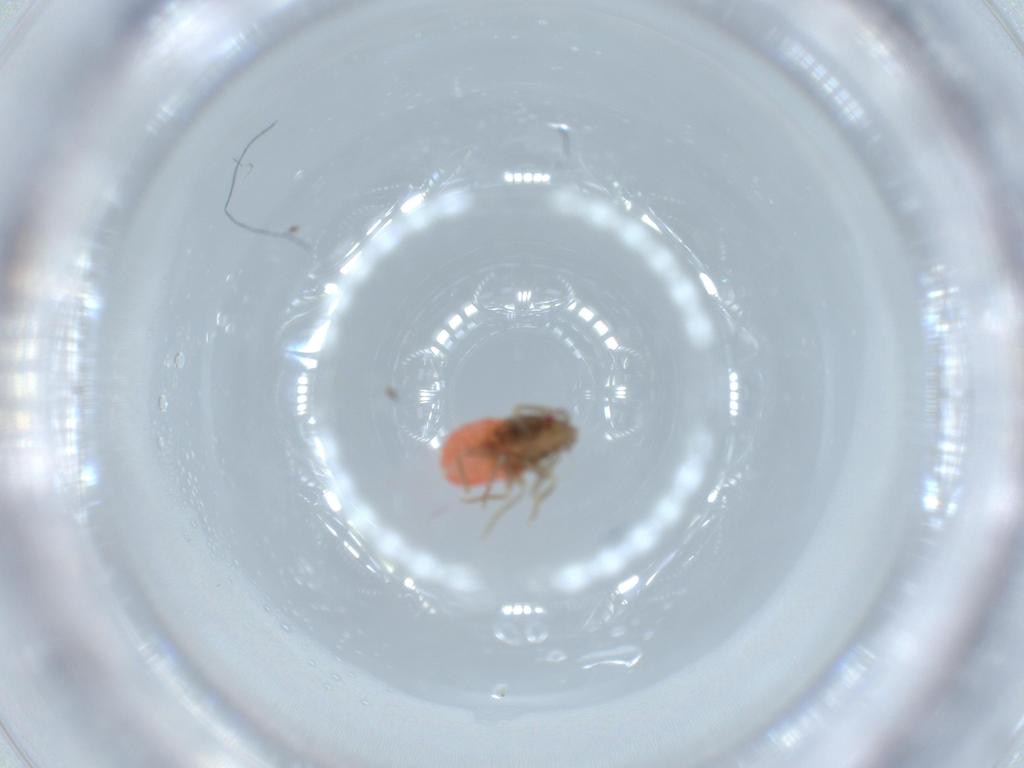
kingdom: Animalia
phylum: Arthropoda
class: Insecta
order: Hemiptera
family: Rhyparochromidae
